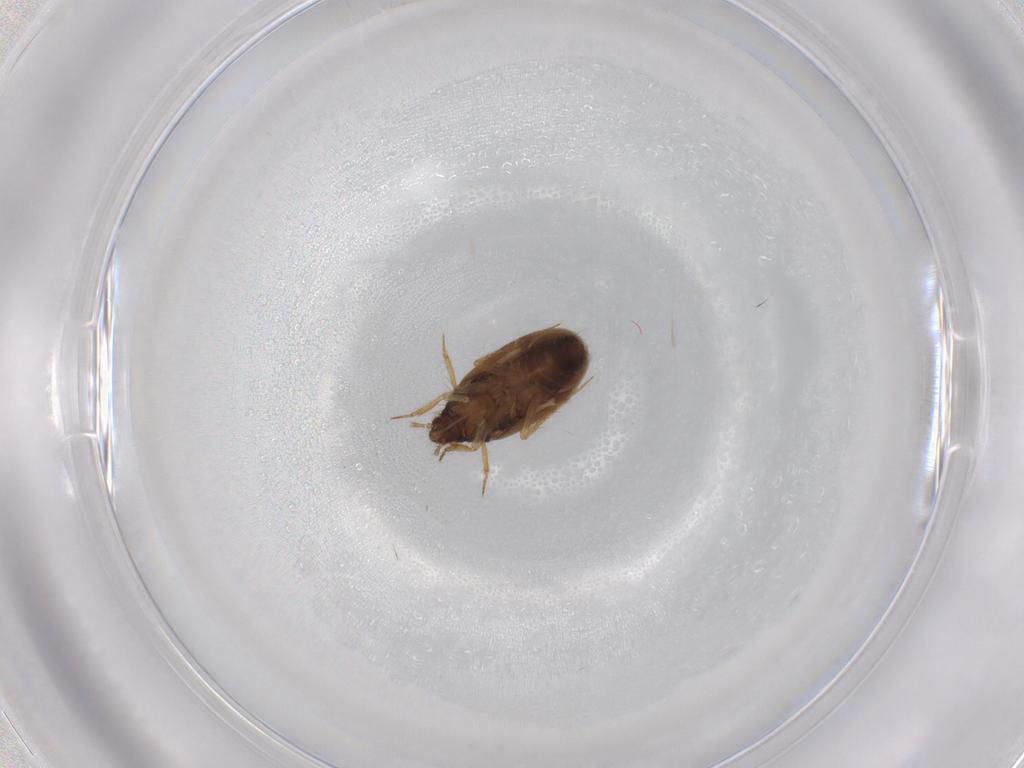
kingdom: Animalia
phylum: Arthropoda
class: Insecta
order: Hemiptera
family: Ceratocombidae
